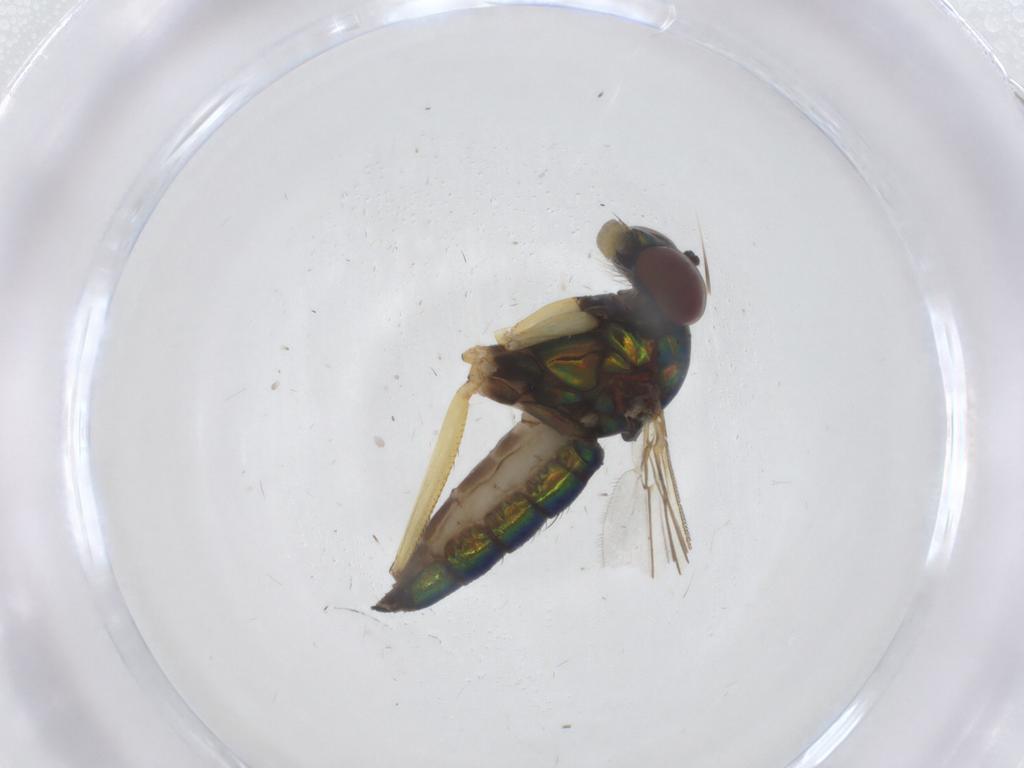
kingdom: Animalia
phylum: Arthropoda
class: Insecta
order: Diptera
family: Dolichopodidae
